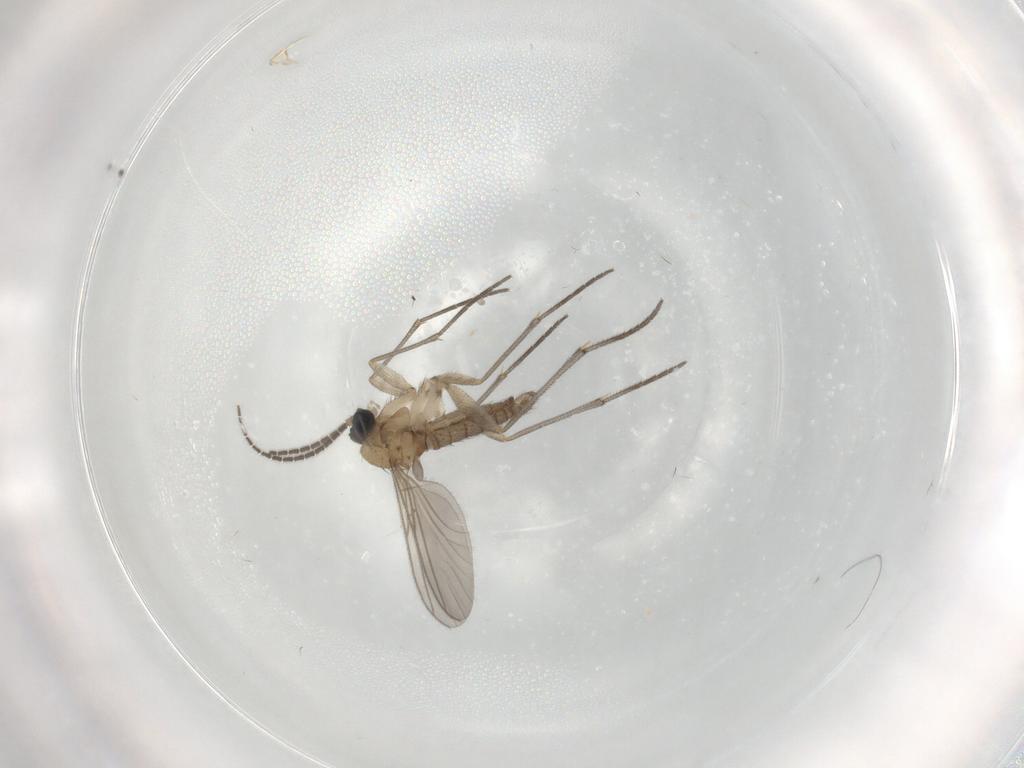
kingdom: Animalia
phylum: Arthropoda
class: Insecta
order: Diptera
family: Sciaridae
